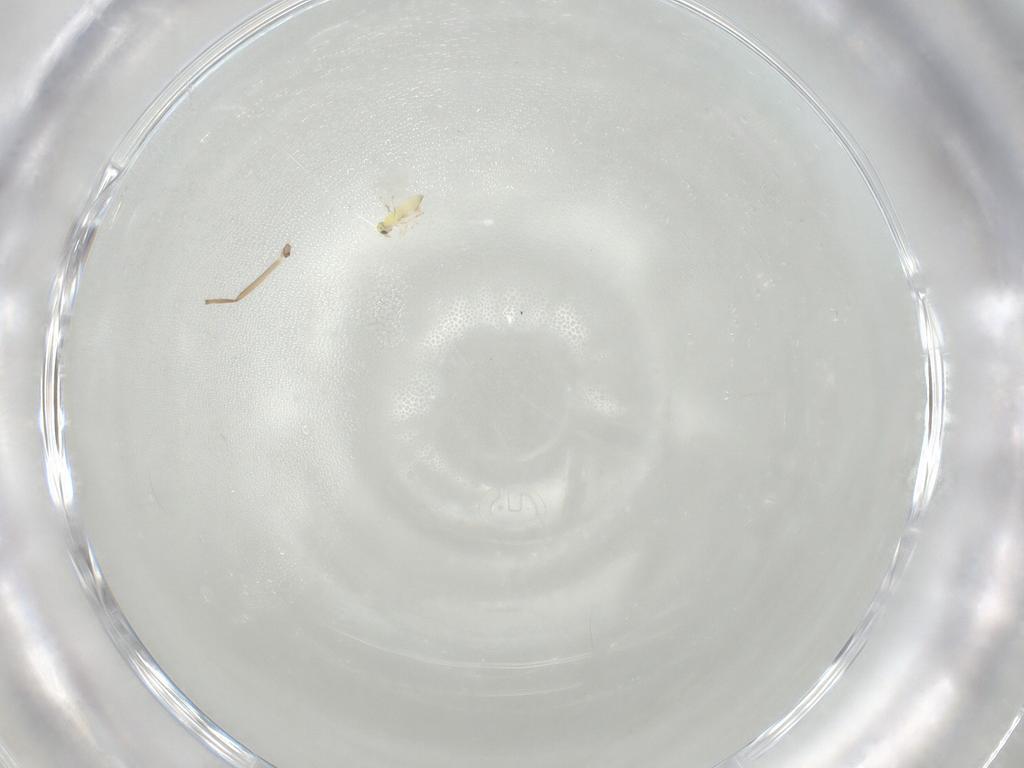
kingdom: Animalia
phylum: Arthropoda
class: Insecta
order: Hymenoptera
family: Encyrtidae
